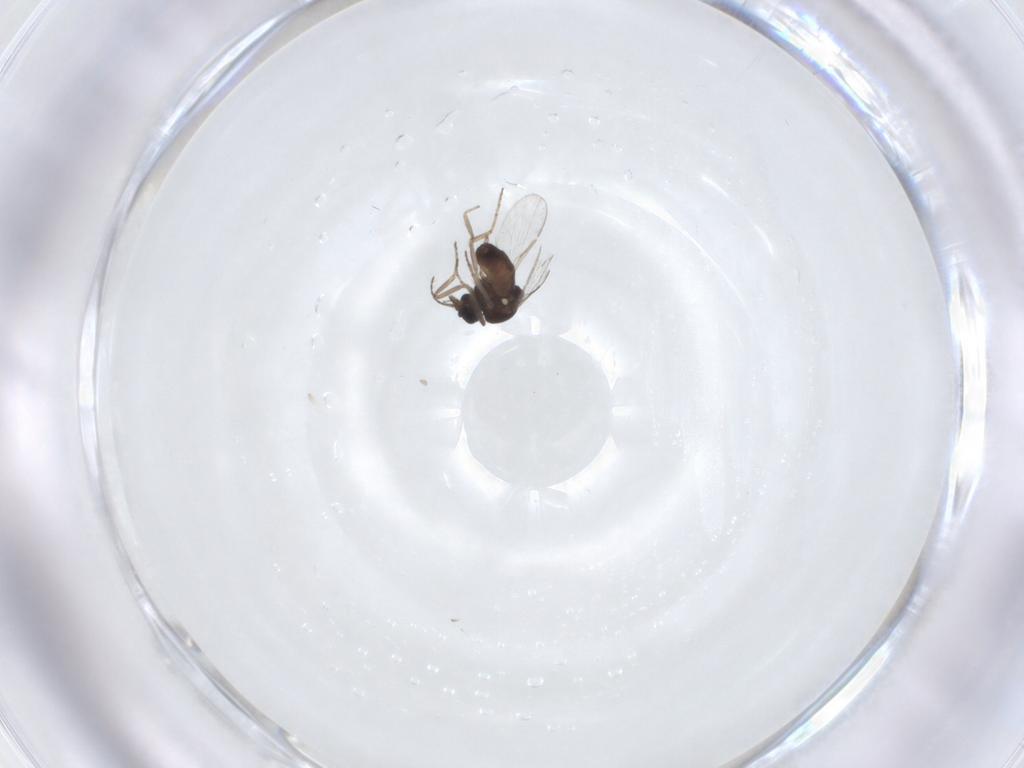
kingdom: Animalia
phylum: Arthropoda
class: Insecta
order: Diptera
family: Ceratopogonidae
